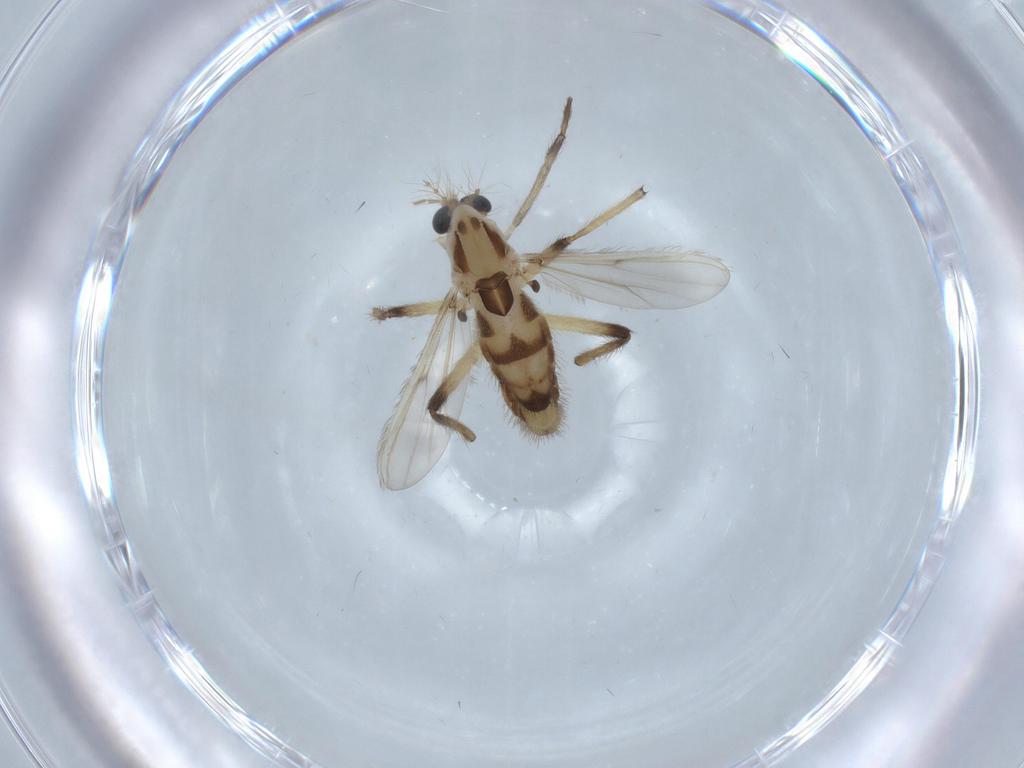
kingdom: Animalia
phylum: Arthropoda
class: Insecta
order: Diptera
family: Chironomidae
